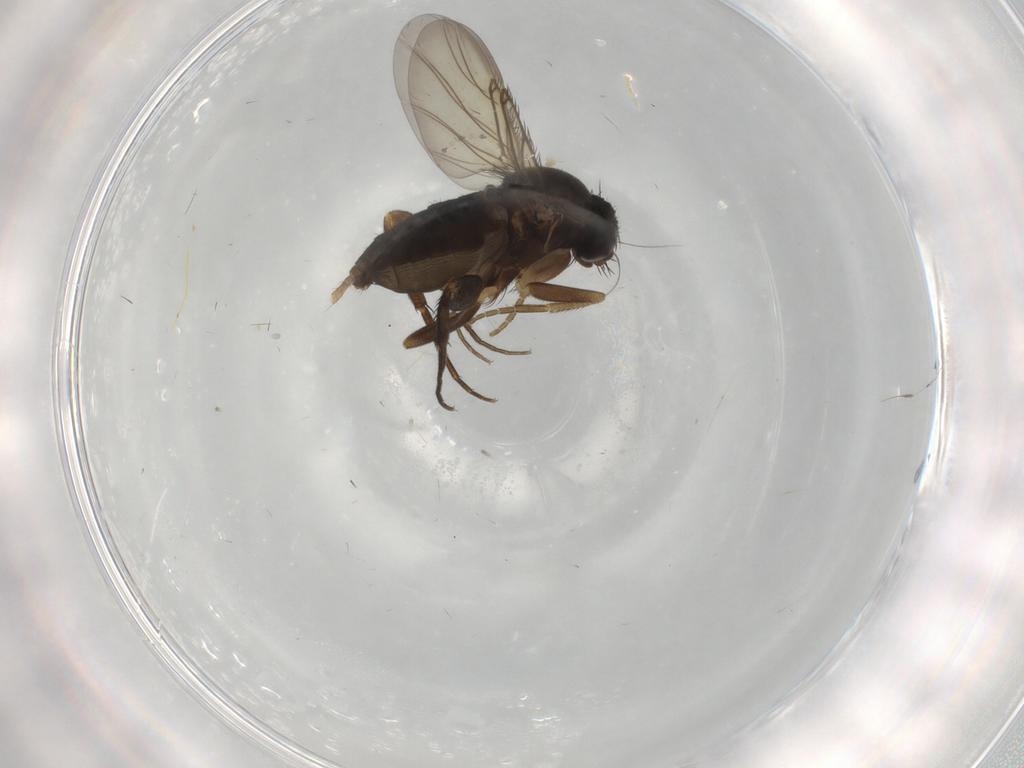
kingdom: Animalia
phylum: Arthropoda
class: Insecta
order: Diptera
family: Phoridae
